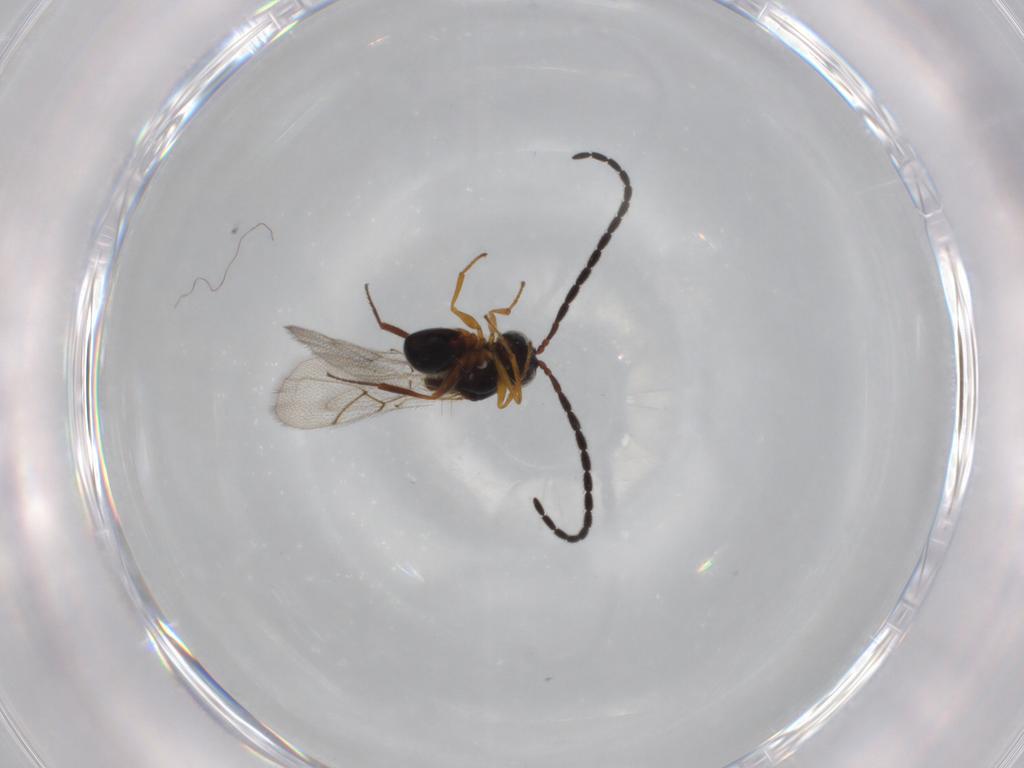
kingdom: Animalia
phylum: Arthropoda
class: Insecta
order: Hymenoptera
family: Figitidae
